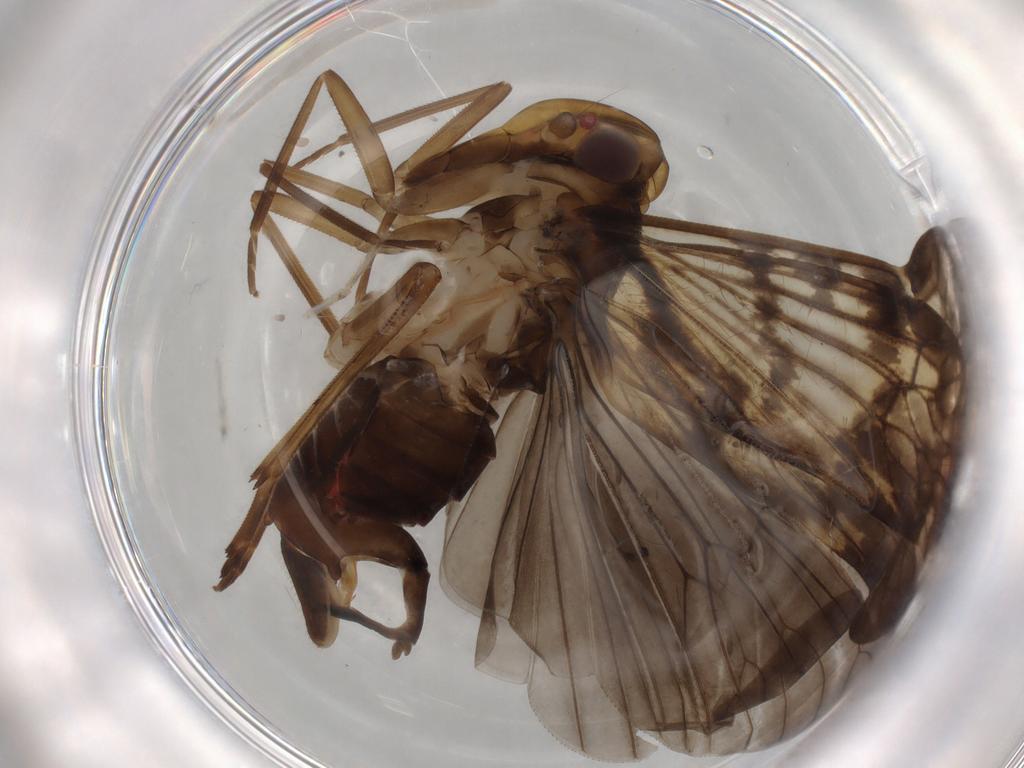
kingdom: Animalia
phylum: Arthropoda
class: Insecta
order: Hemiptera
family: Cixiidae
